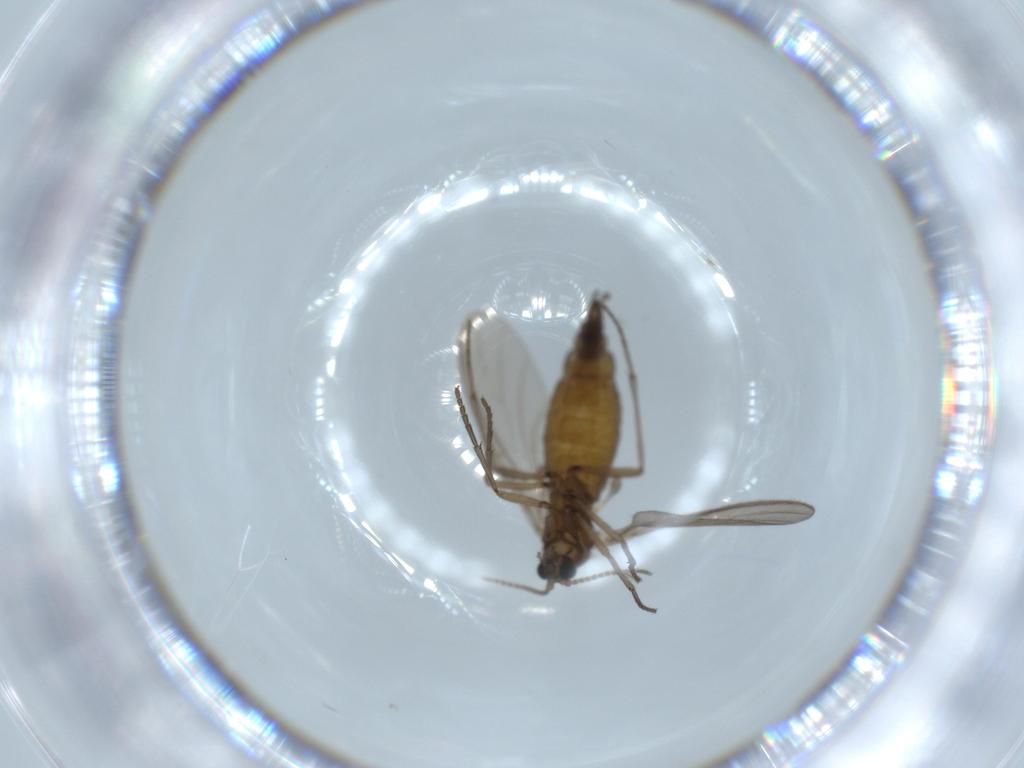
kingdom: Animalia
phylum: Arthropoda
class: Insecta
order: Diptera
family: Sciaridae
